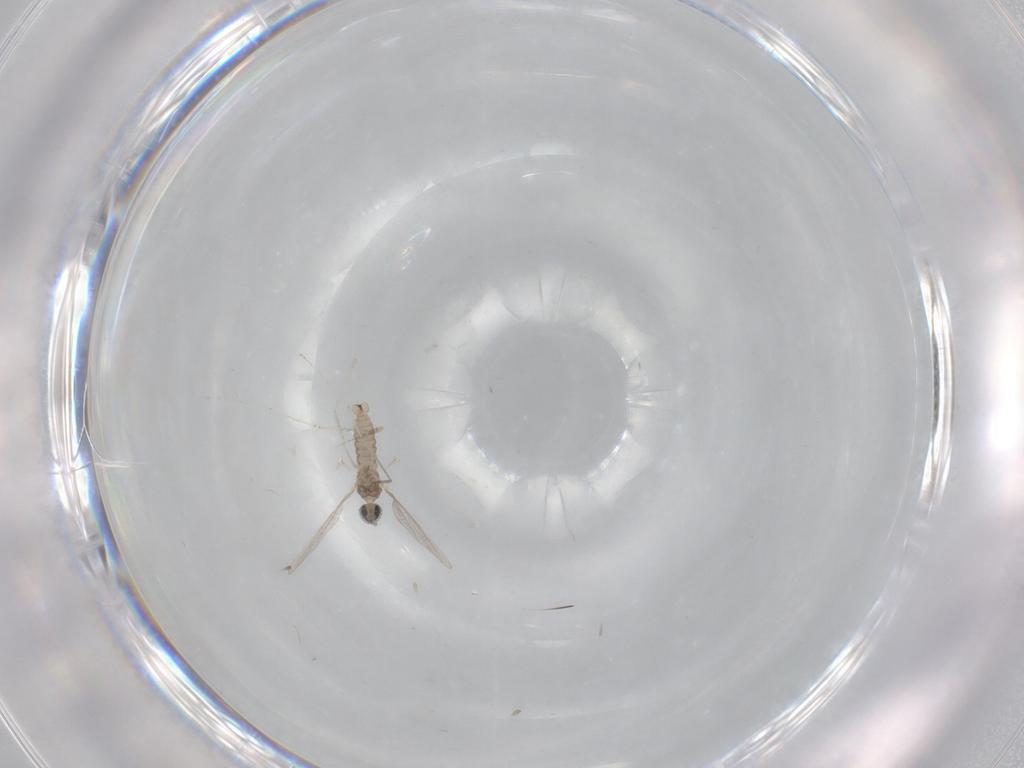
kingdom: Animalia
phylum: Arthropoda
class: Insecta
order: Diptera
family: Cecidomyiidae
